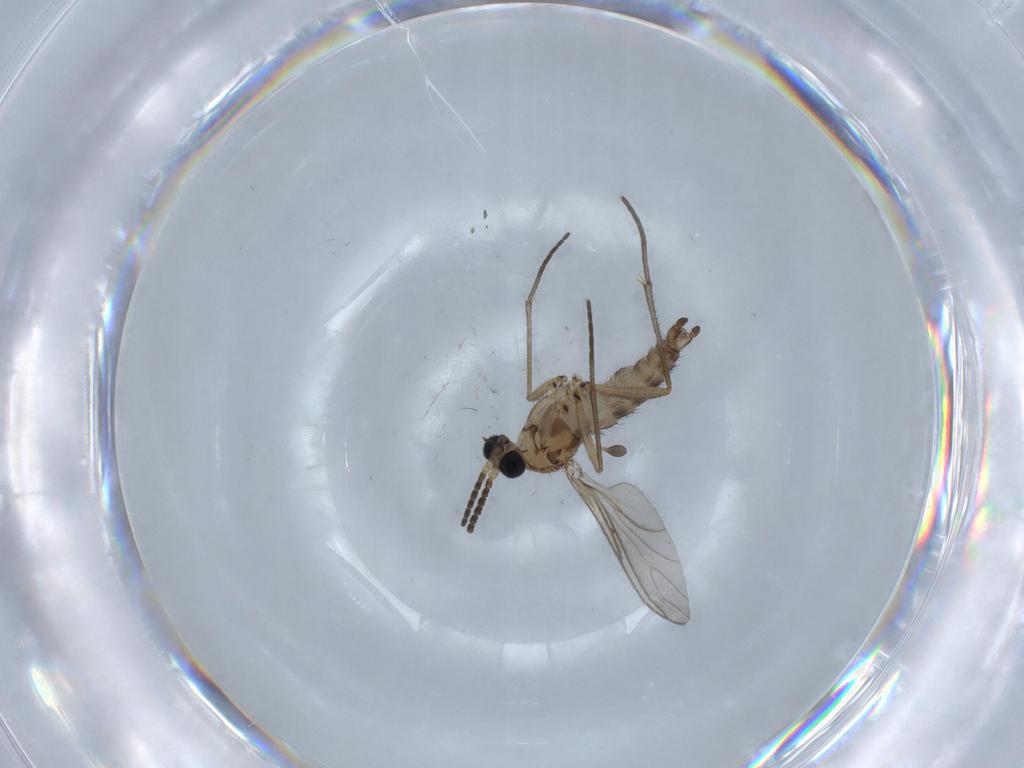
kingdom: Animalia
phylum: Arthropoda
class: Insecta
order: Diptera
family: Sciaridae
